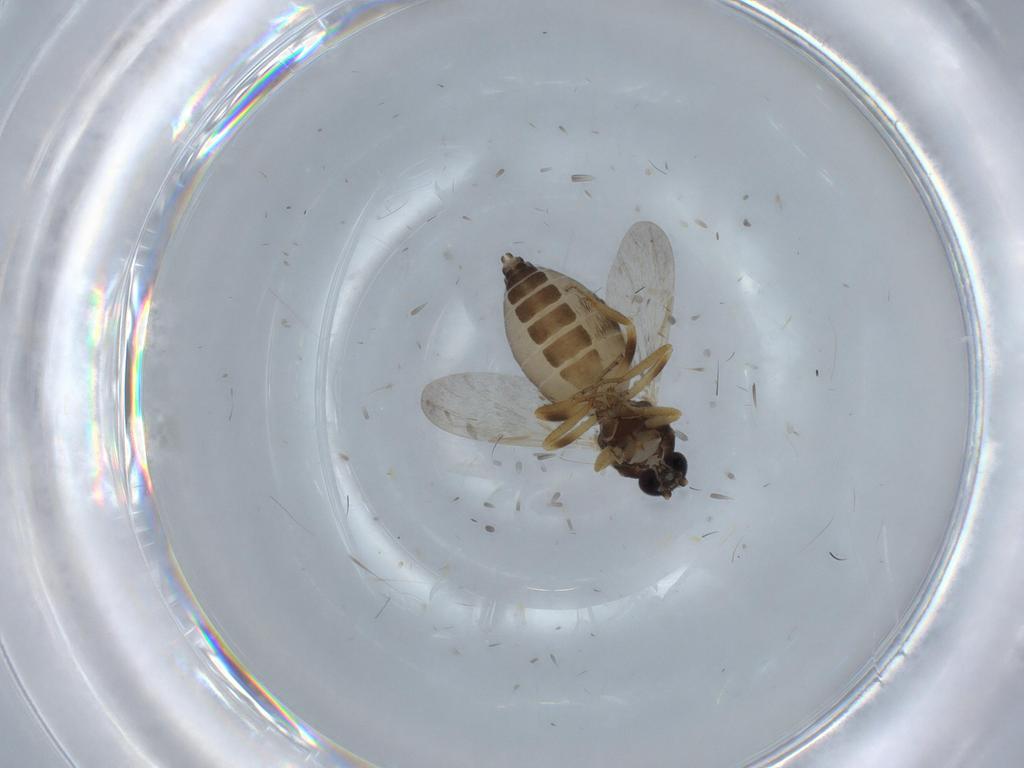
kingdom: Animalia
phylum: Arthropoda
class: Insecta
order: Diptera
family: Ceratopogonidae
